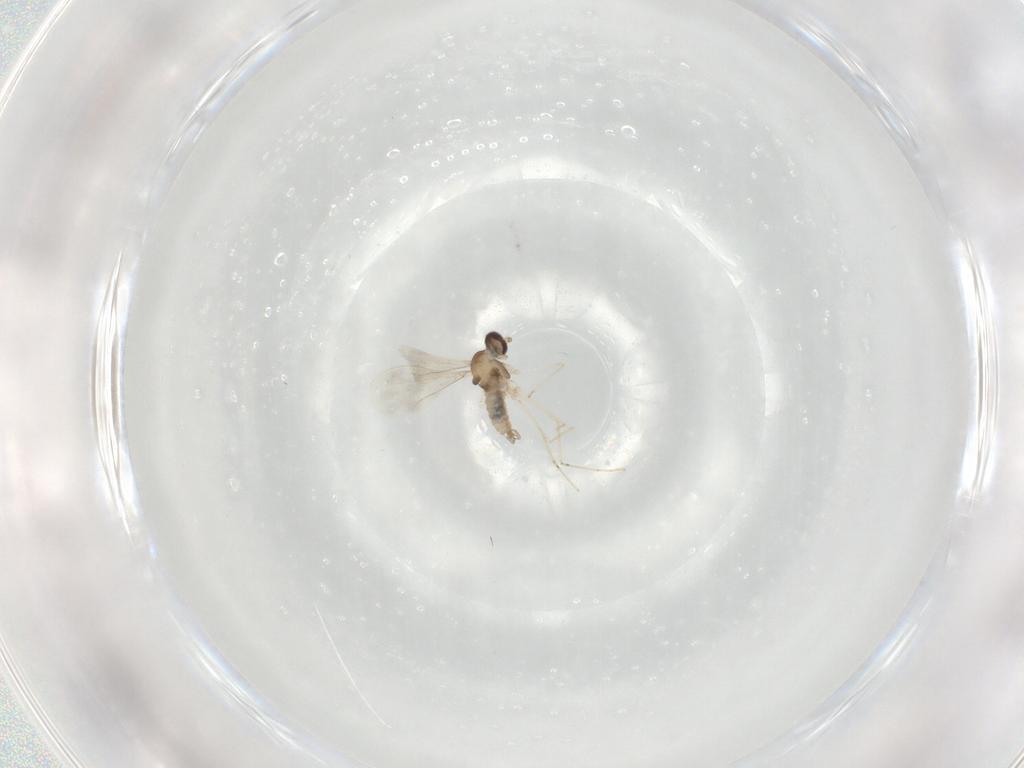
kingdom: Animalia
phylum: Arthropoda
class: Insecta
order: Diptera
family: Cecidomyiidae
